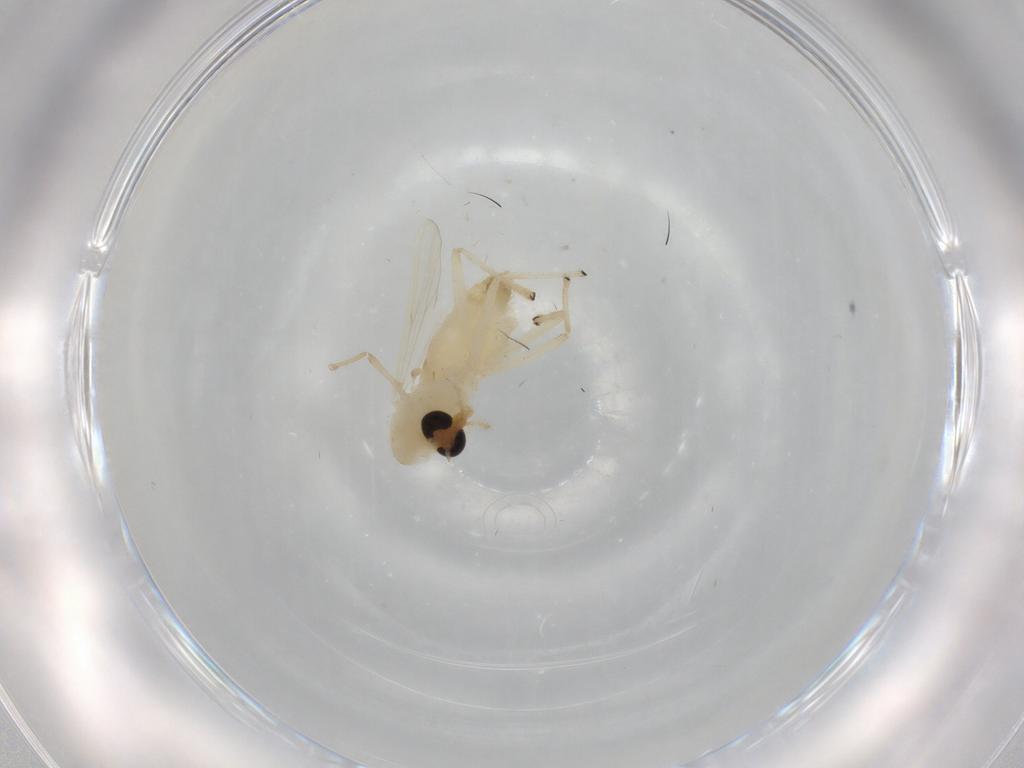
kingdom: Animalia
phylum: Arthropoda
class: Insecta
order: Diptera
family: Chironomidae
